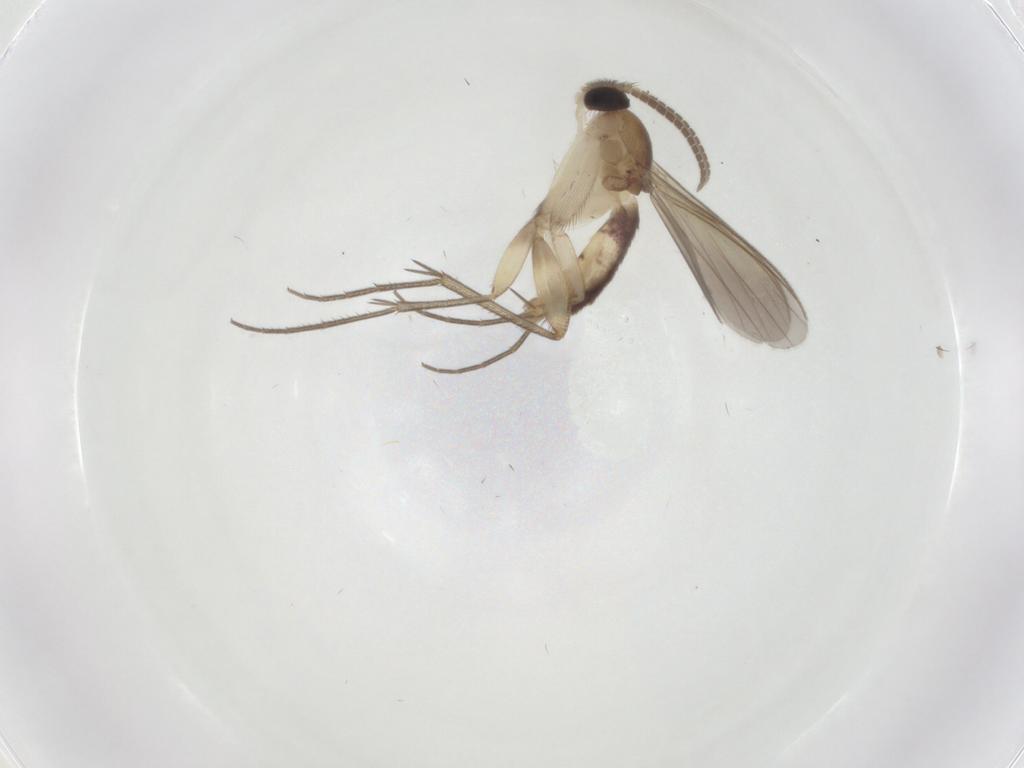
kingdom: Animalia
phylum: Arthropoda
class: Insecta
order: Diptera
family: Mycetophilidae
